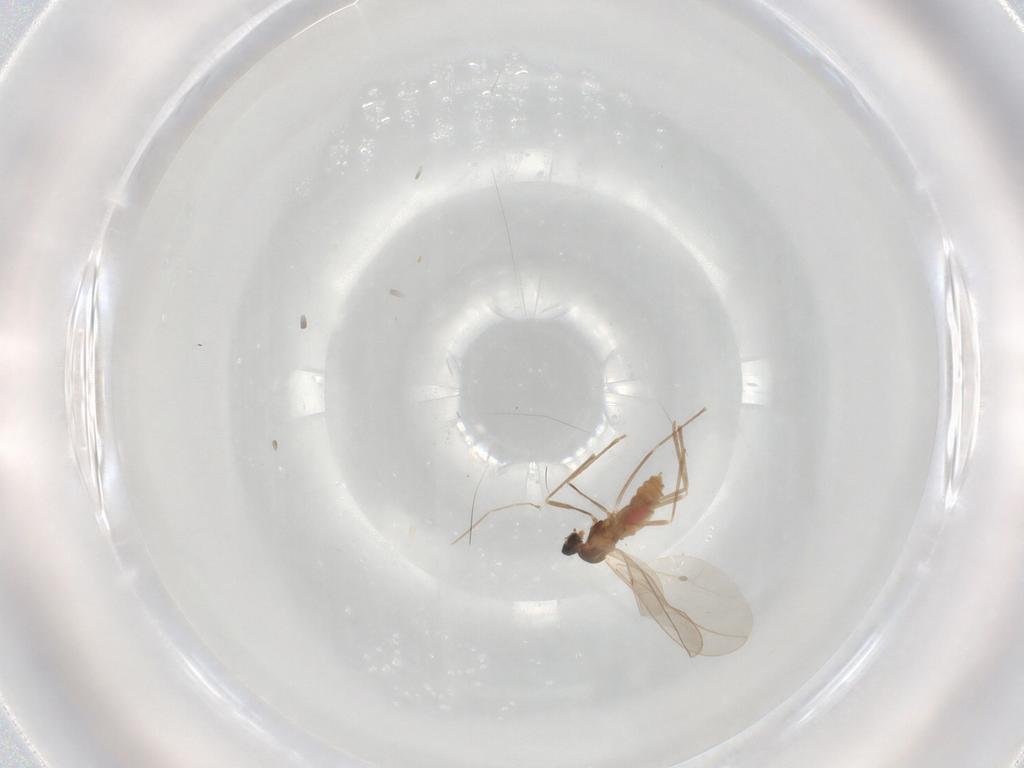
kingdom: Animalia
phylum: Arthropoda
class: Insecta
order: Diptera
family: Cecidomyiidae
